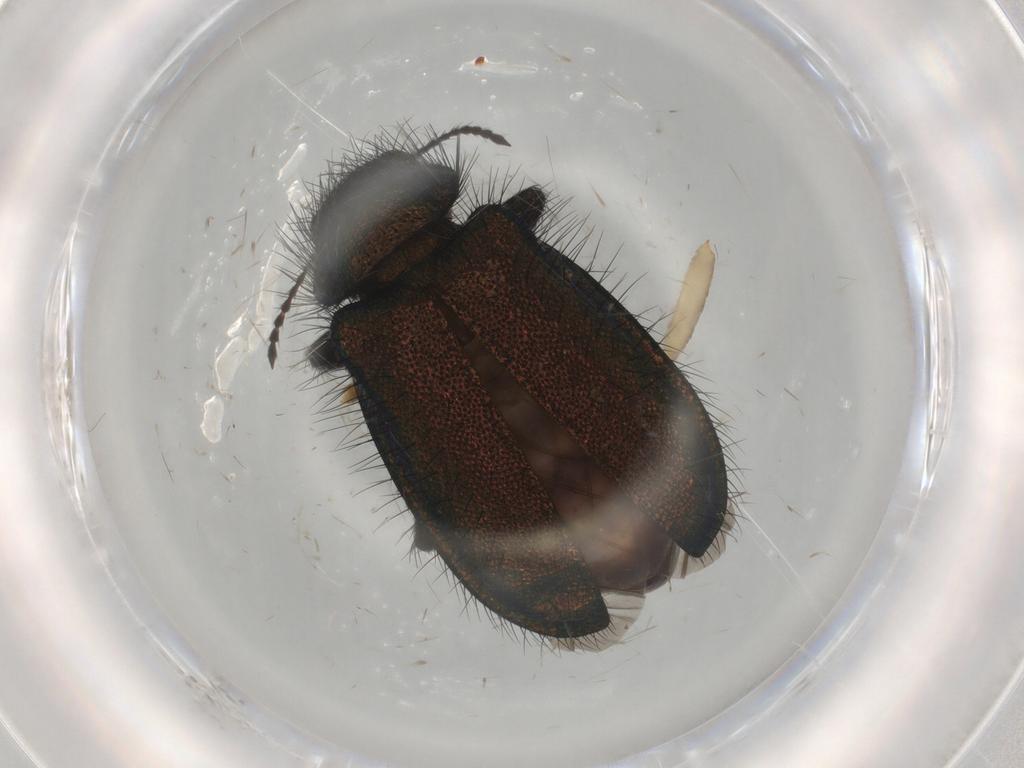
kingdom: Animalia
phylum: Arthropoda
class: Insecta
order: Coleoptera
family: Melyridae
